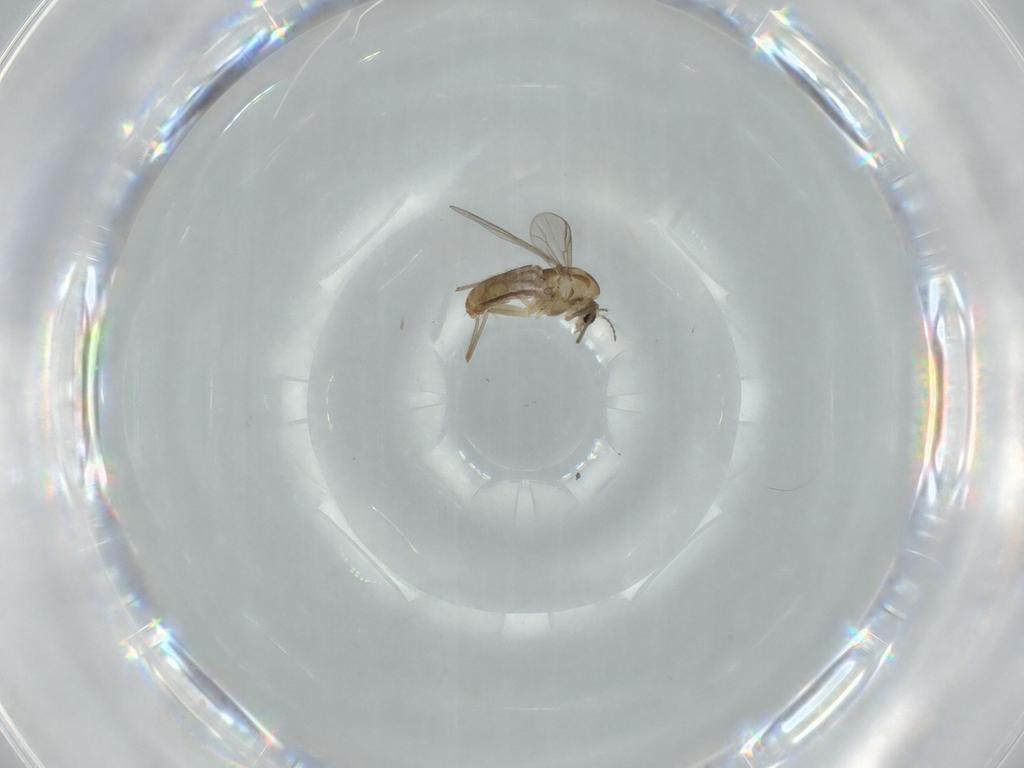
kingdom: Animalia
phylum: Arthropoda
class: Insecta
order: Diptera
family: Chironomidae
